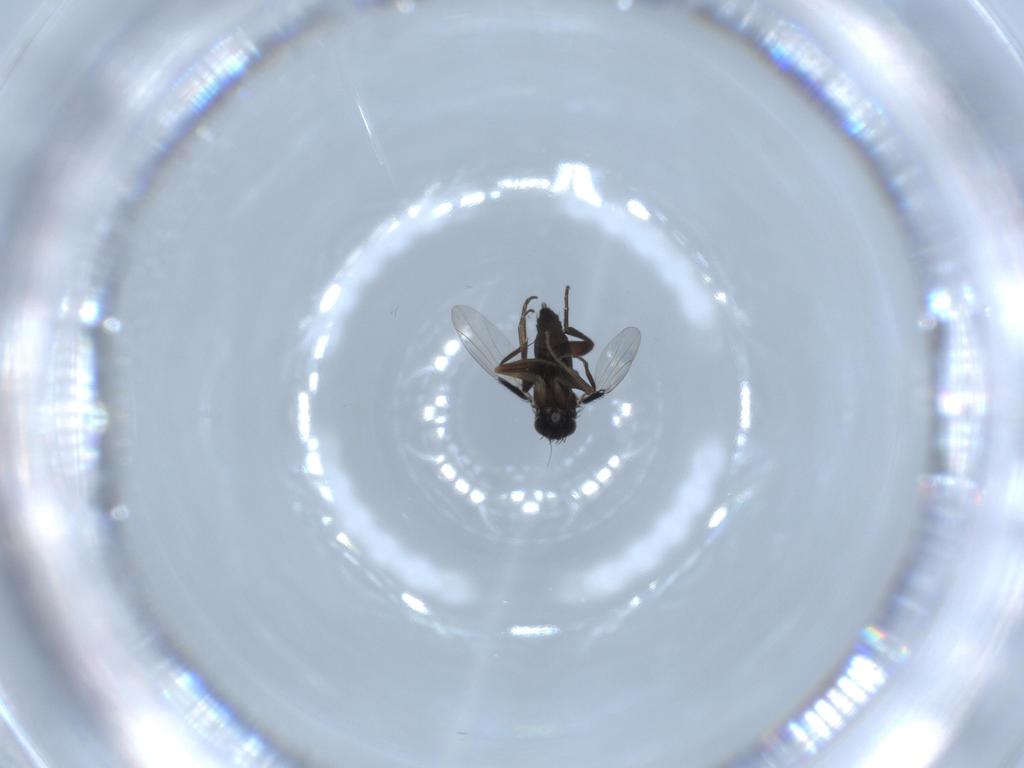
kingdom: Animalia
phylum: Arthropoda
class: Insecta
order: Diptera
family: Phoridae
